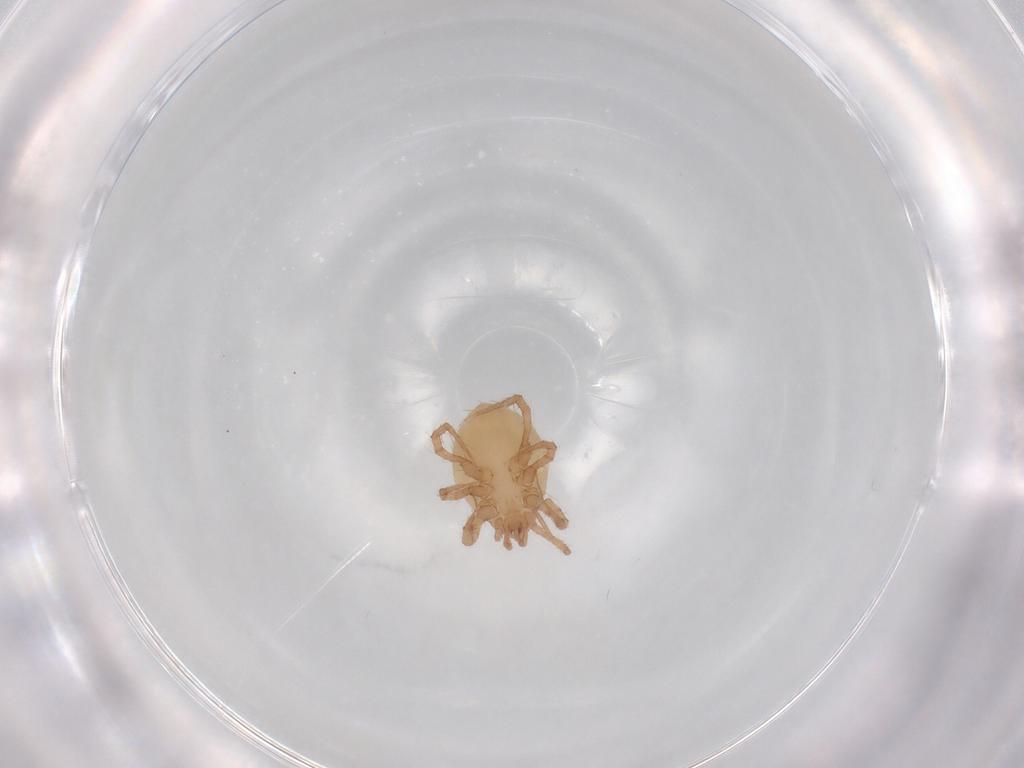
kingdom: Animalia
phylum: Arthropoda
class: Arachnida
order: Mesostigmata
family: Parasitidae
